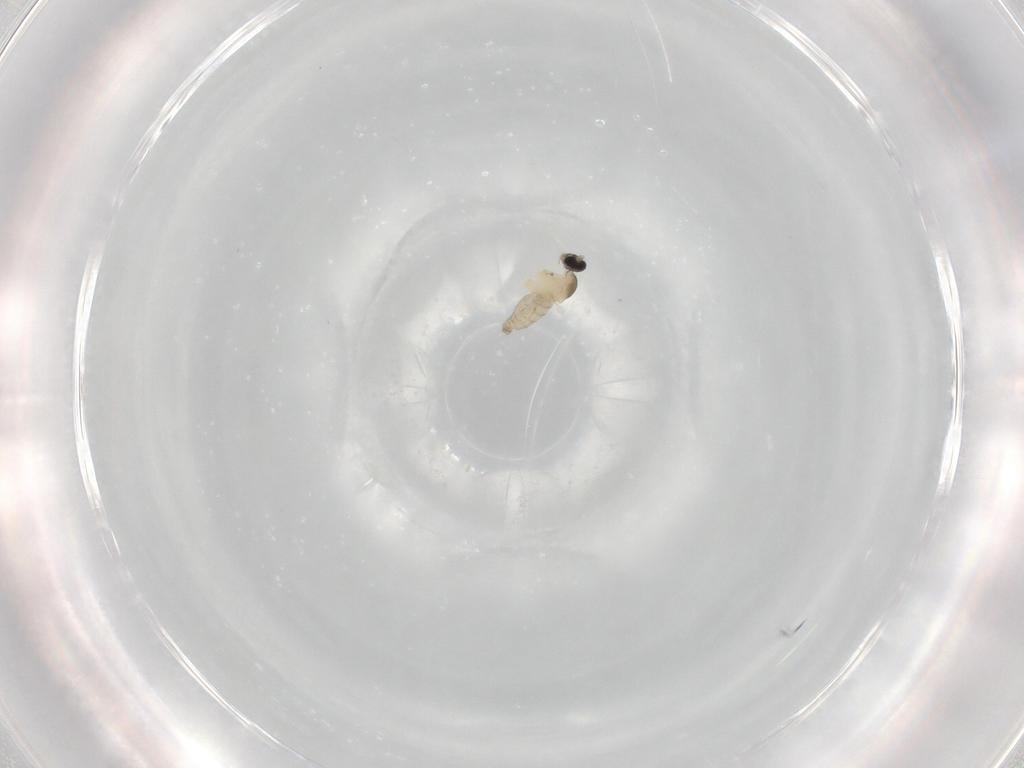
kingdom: Animalia
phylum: Arthropoda
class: Insecta
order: Diptera
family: Cecidomyiidae
